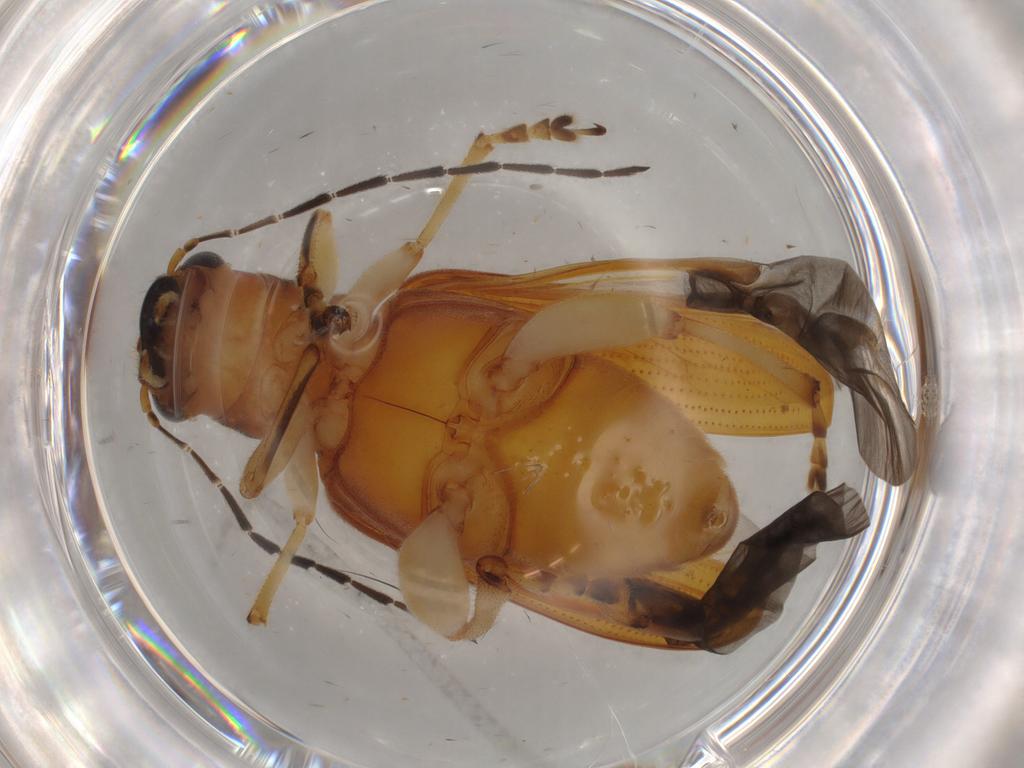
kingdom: Animalia
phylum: Arthropoda
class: Insecta
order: Coleoptera
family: Chrysomelidae
